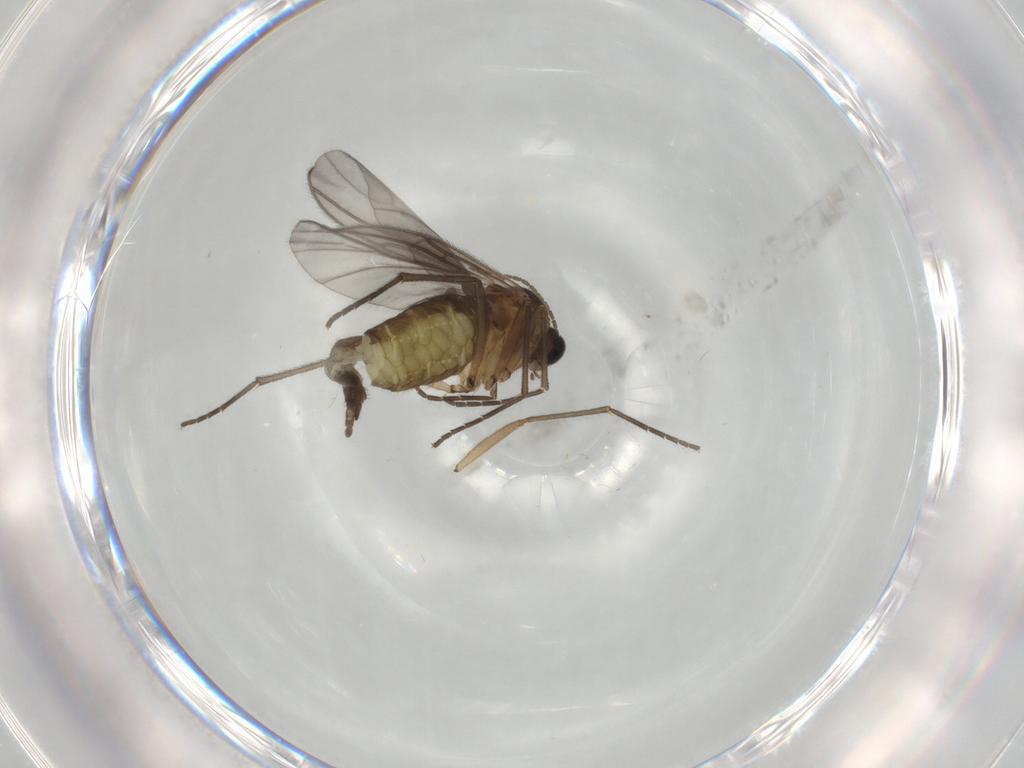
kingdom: Animalia
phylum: Arthropoda
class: Insecta
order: Diptera
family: Sciaridae
